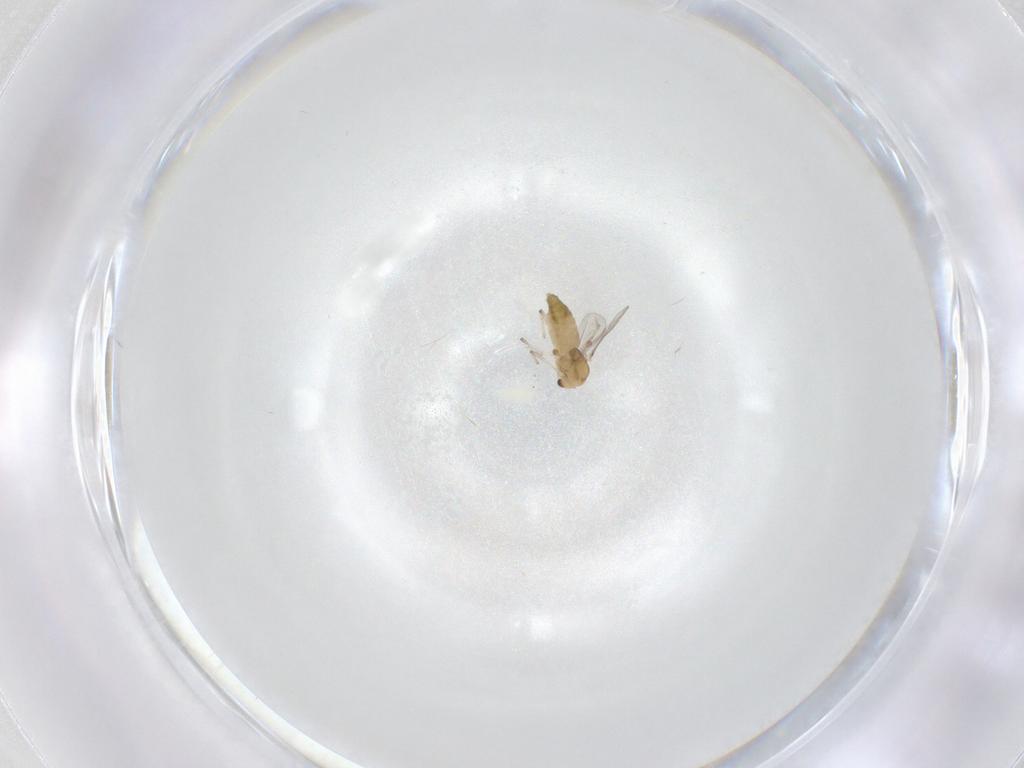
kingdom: Animalia
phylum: Arthropoda
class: Insecta
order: Diptera
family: Chironomidae
